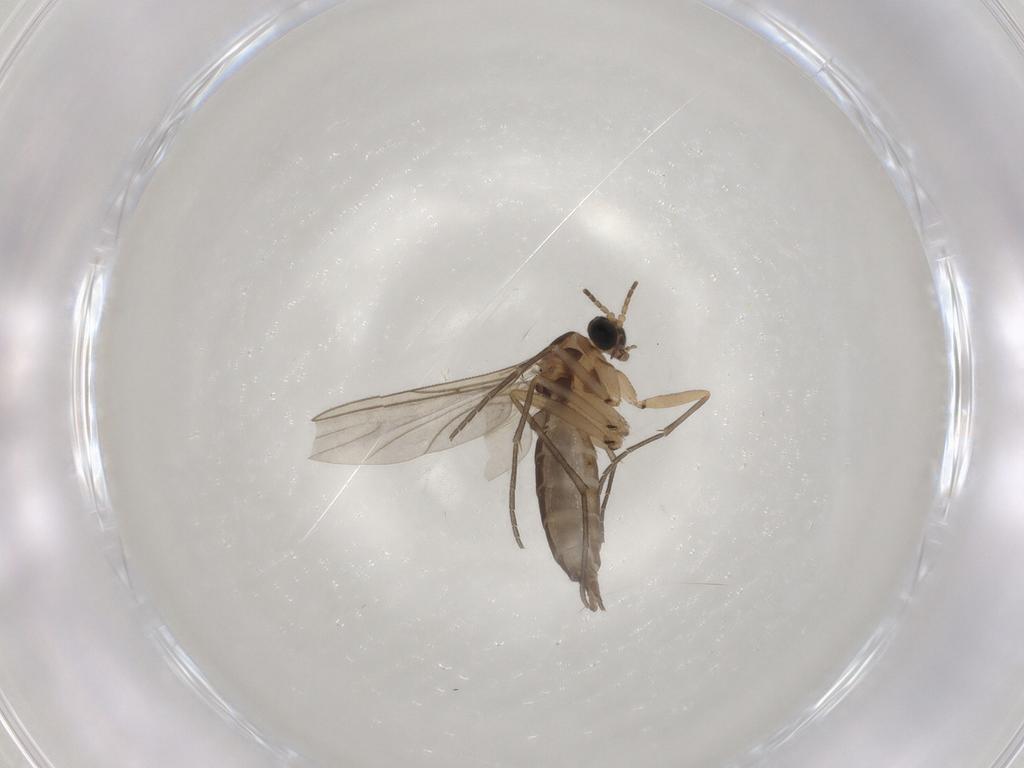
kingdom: Animalia
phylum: Arthropoda
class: Insecta
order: Diptera
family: Sciaridae
